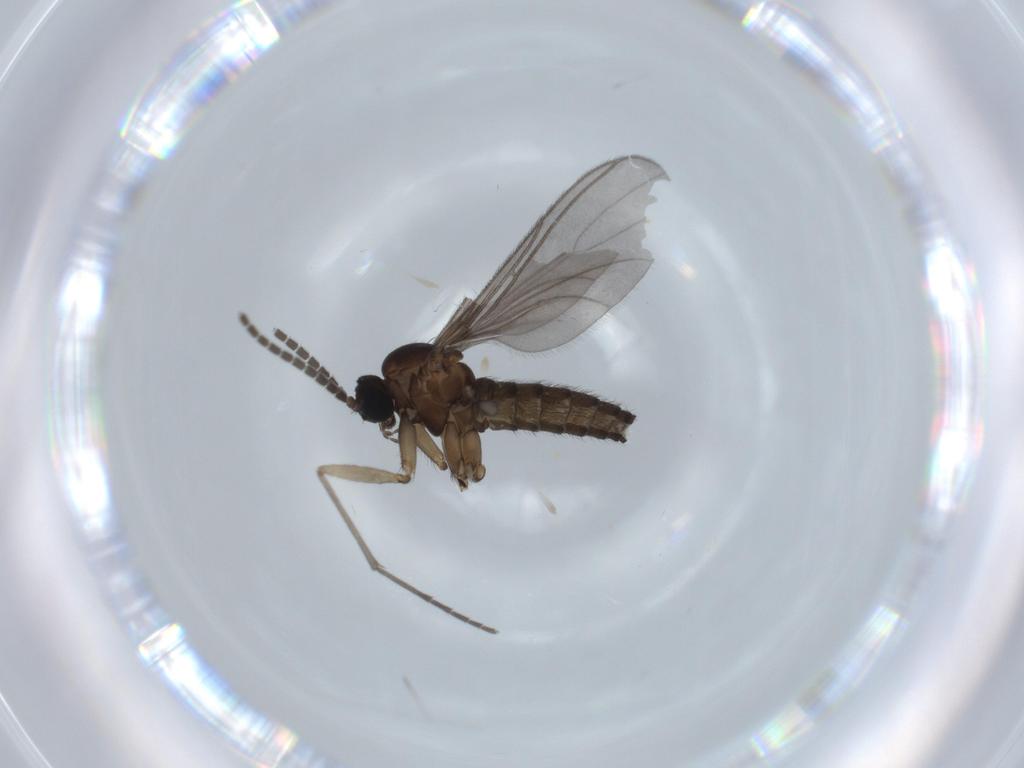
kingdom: Animalia
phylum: Arthropoda
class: Insecta
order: Diptera
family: Sciaridae
